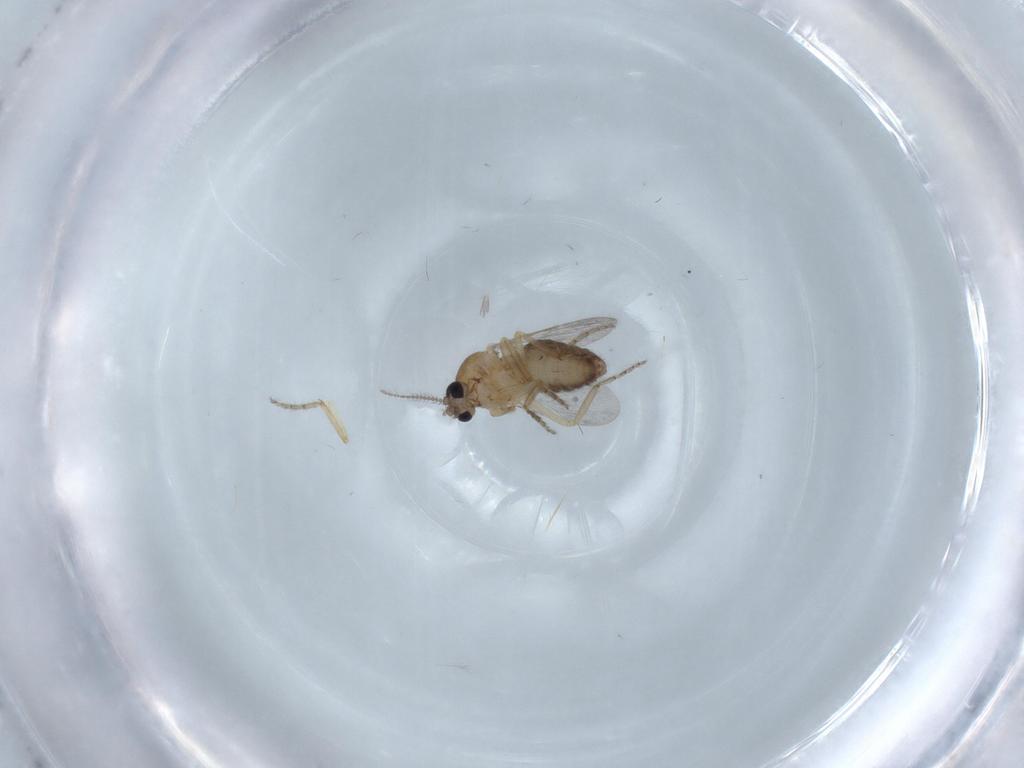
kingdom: Animalia
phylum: Arthropoda
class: Insecta
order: Diptera
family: Ceratopogonidae
